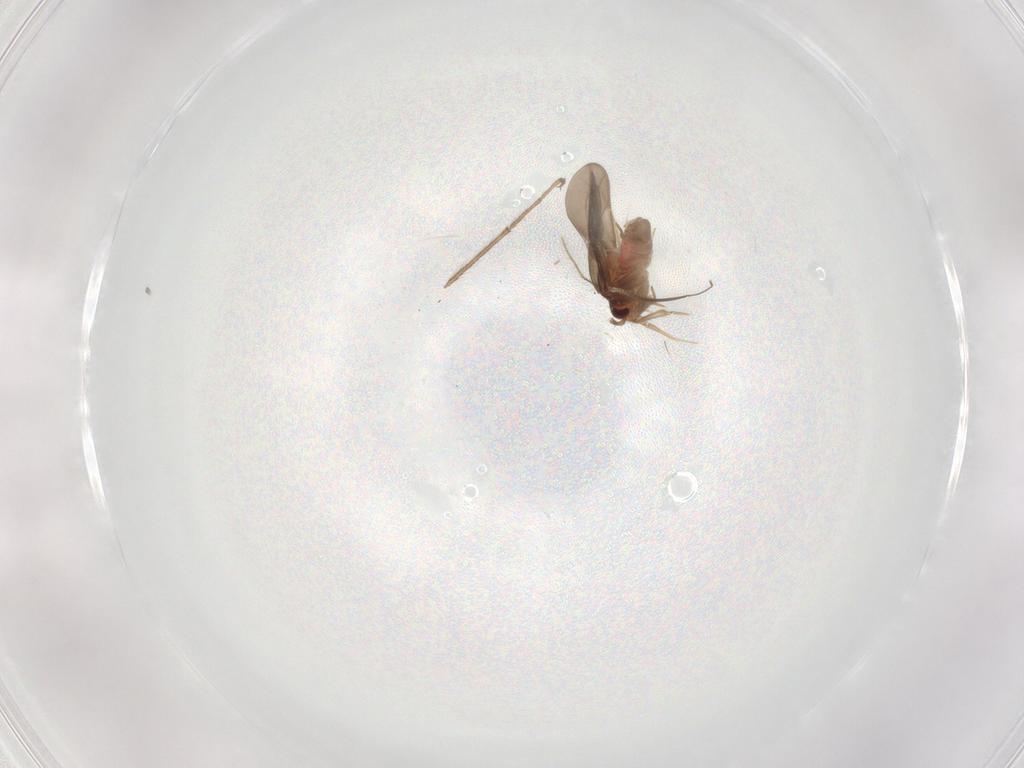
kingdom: Animalia
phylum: Arthropoda
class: Insecta
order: Hemiptera
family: Ceratocombidae
